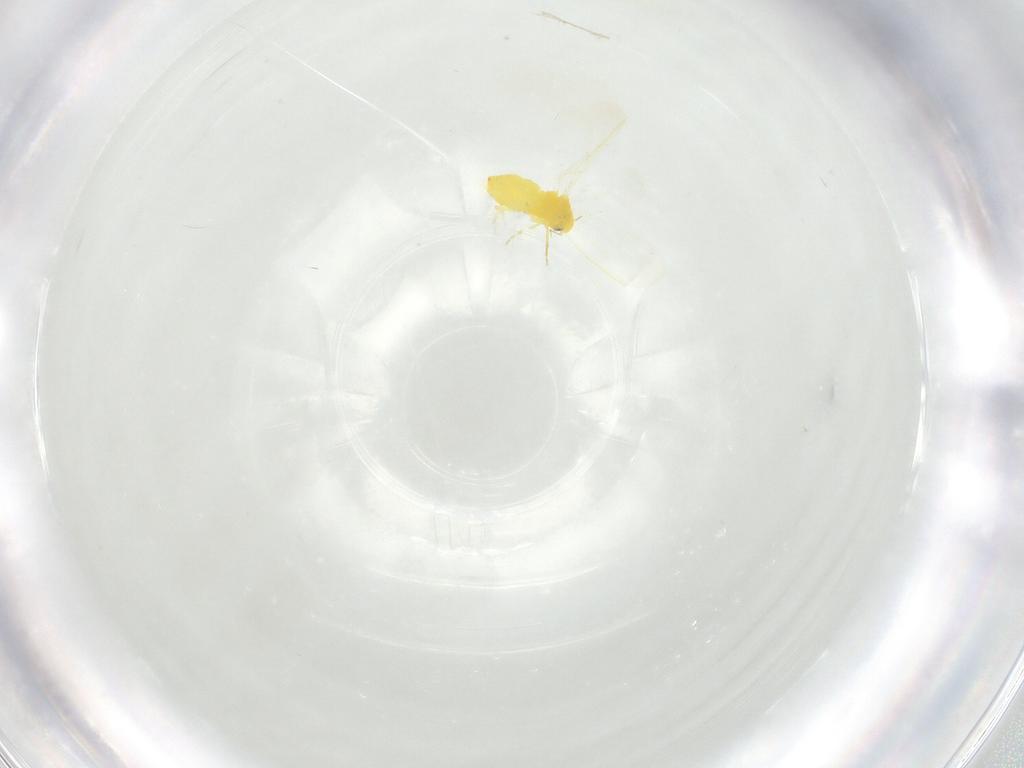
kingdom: Animalia
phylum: Arthropoda
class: Insecta
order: Hemiptera
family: Aleyrodidae
